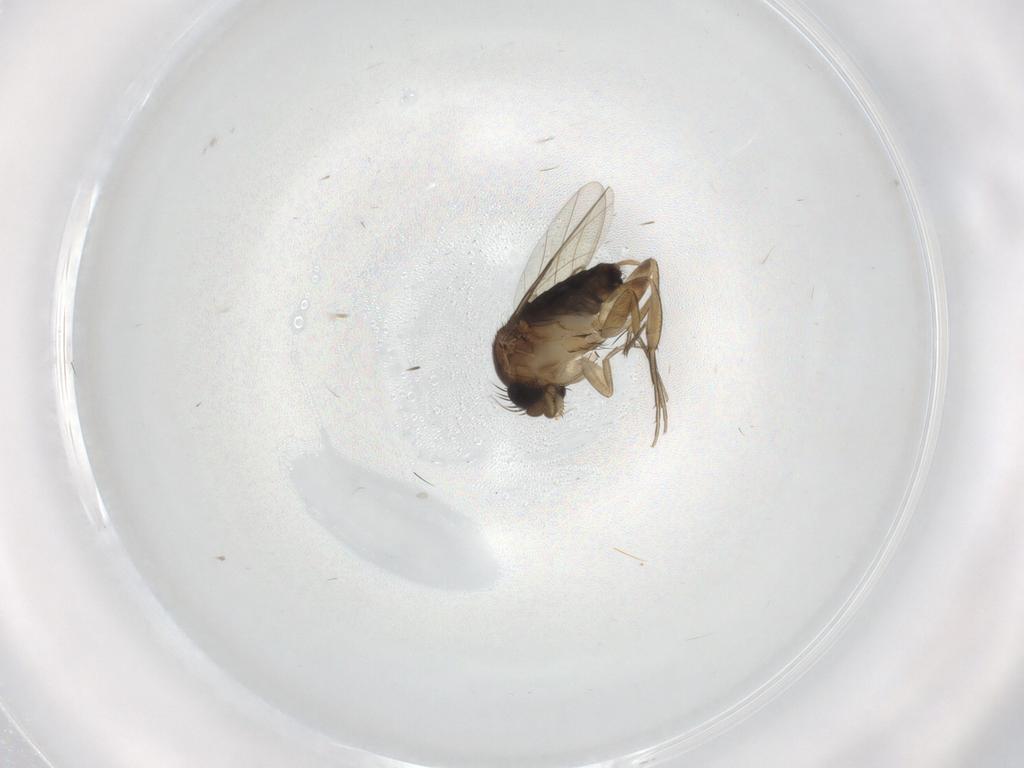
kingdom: Animalia
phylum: Arthropoda
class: Insecta
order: Diptera
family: Phoridae
